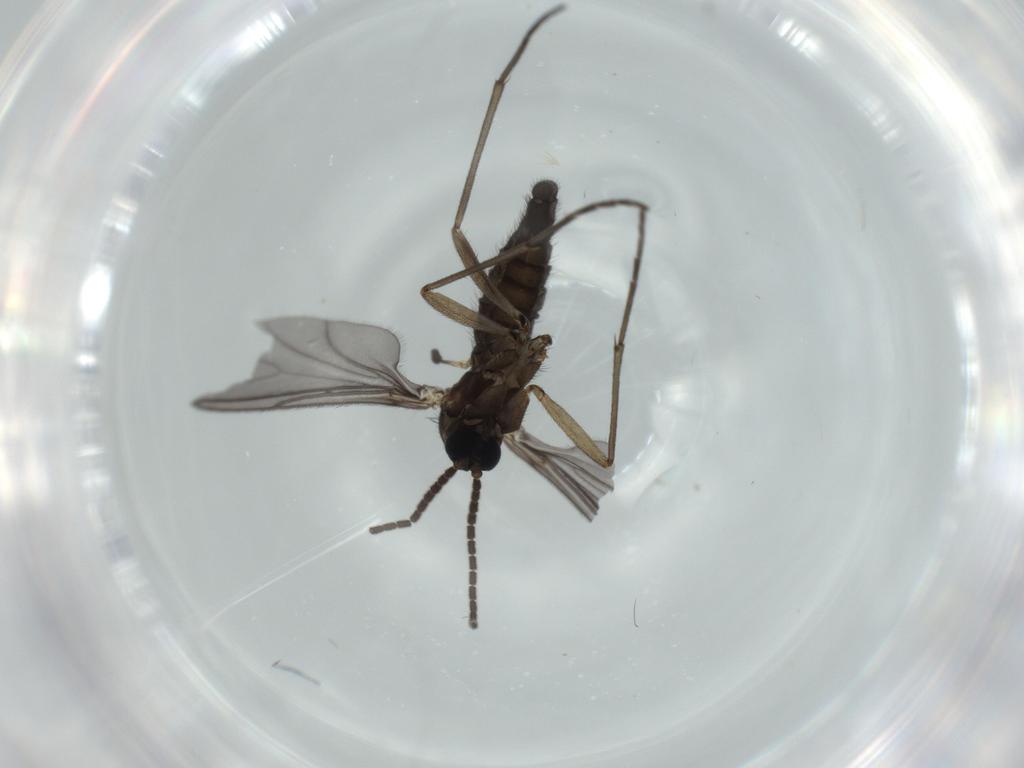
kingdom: Animalia
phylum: Arthropoda
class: Insecta
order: Diptera
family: Sciaridae
